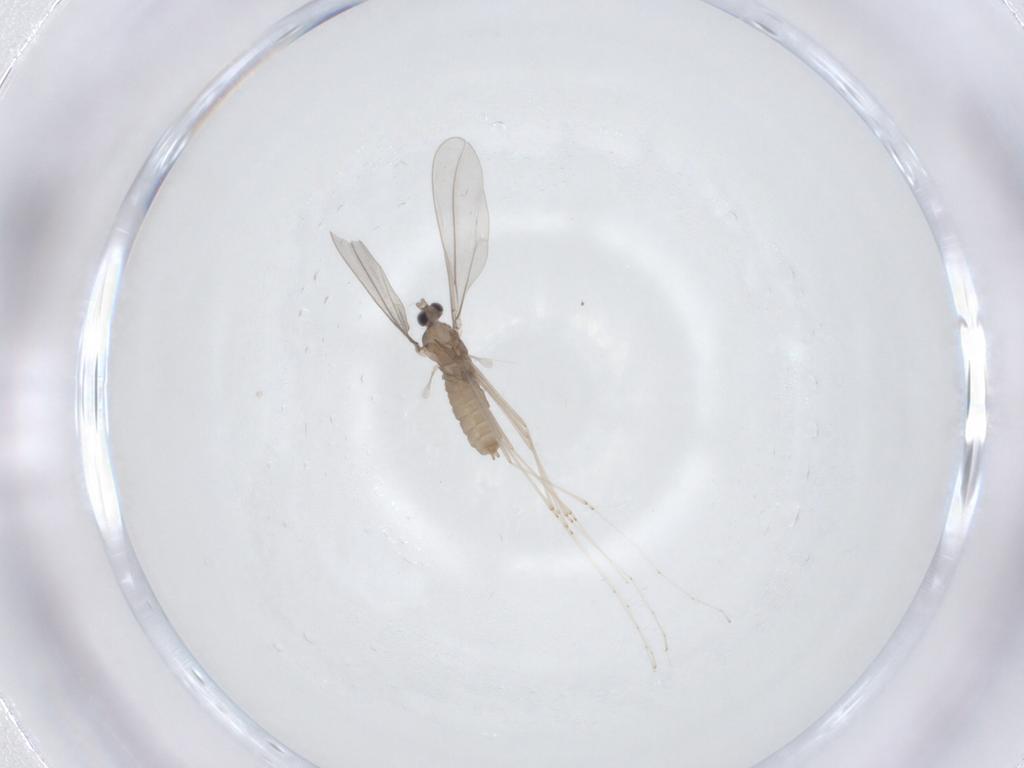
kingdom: Animalia
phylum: Arthropoda
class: Insecta
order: Diptera
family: Cecidomyiidae
